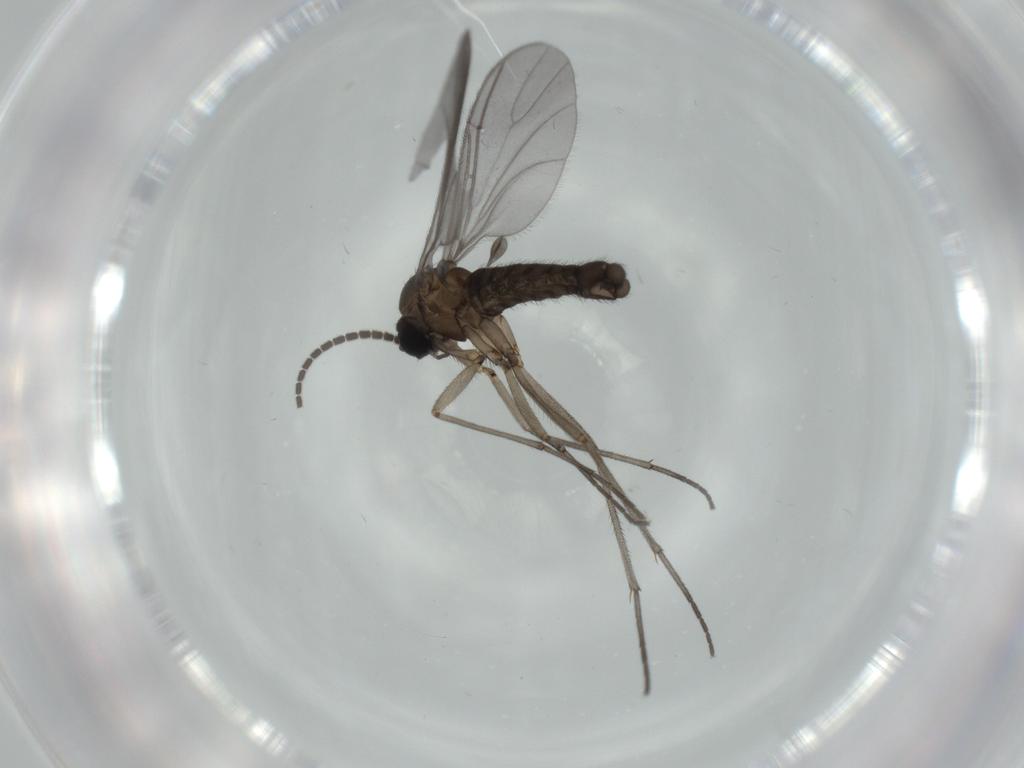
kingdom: Animalia
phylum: Arthropoda
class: Insecta
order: Diptera
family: Sciaridae
